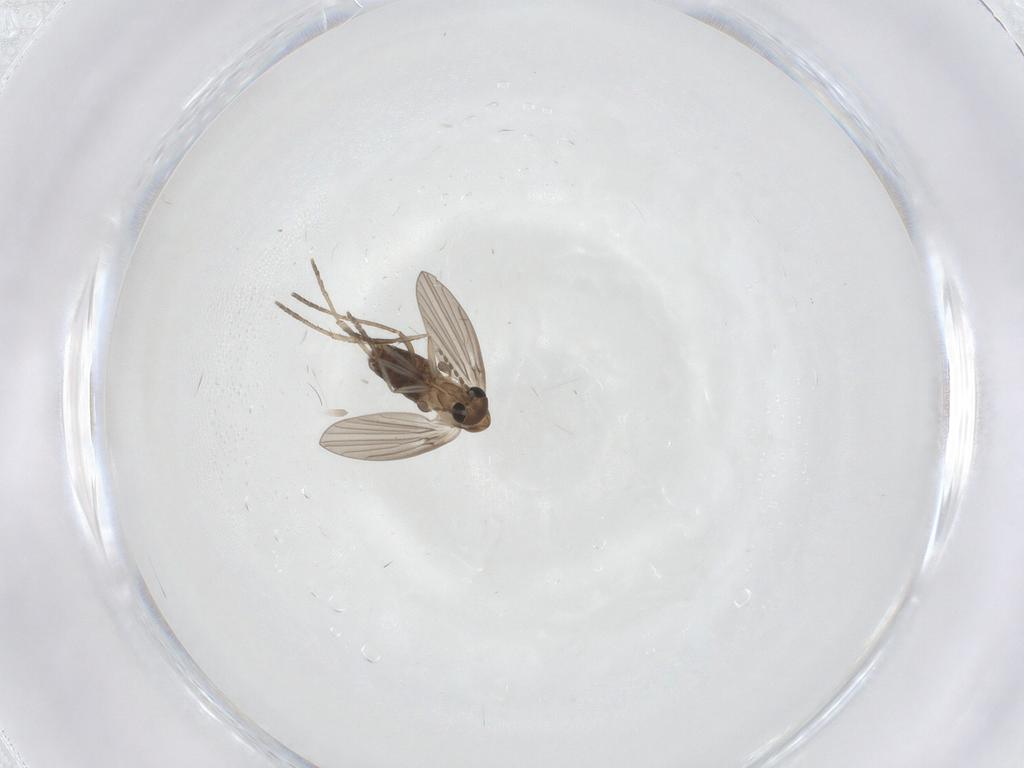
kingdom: Animalia
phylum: Arthropoda
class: Insecta
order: Diptera
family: Psychodidae
